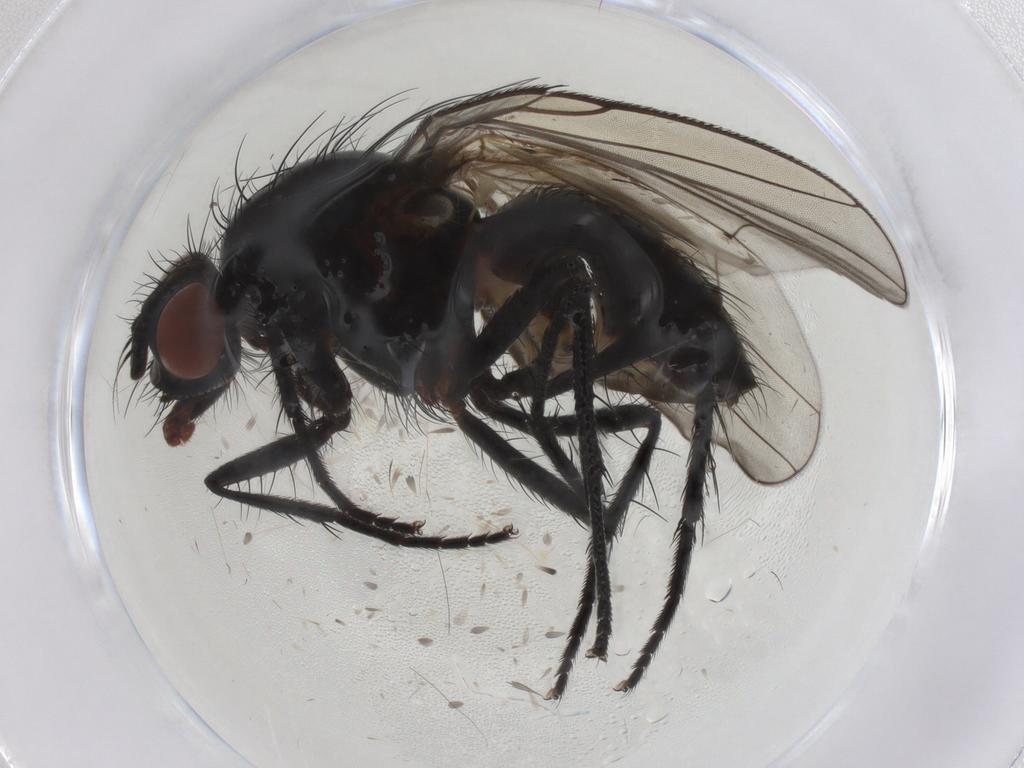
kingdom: Animalia
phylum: Arthropoda
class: Insecta
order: Diptera
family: Anthomyiidae
